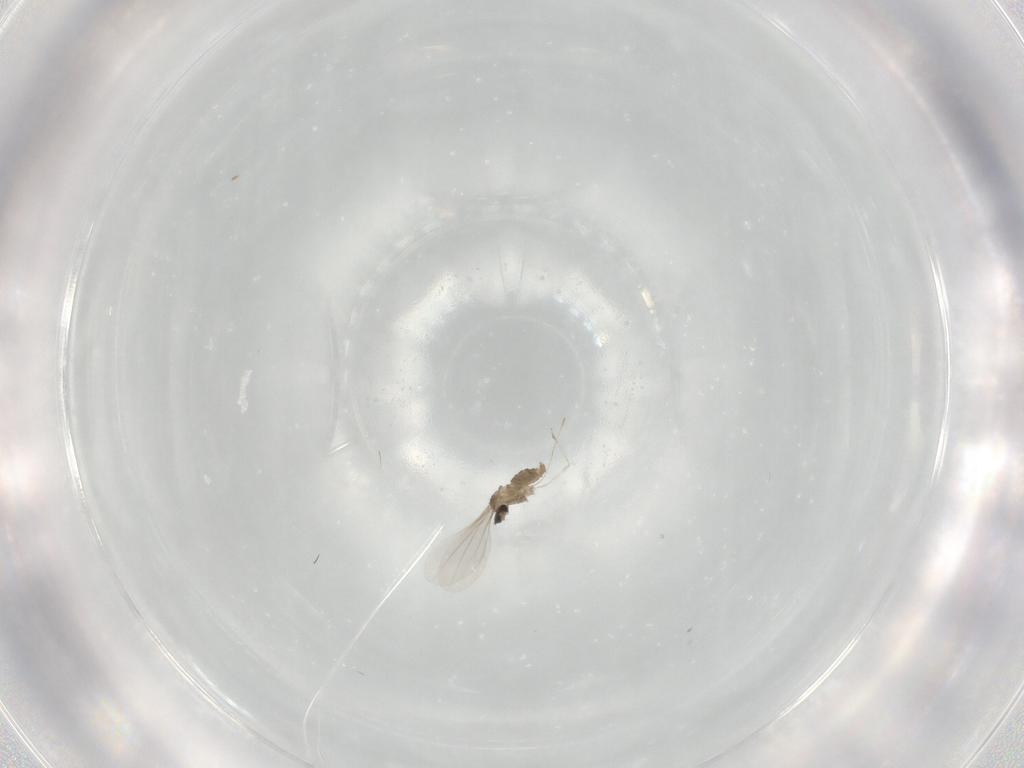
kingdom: Animalia
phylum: Arthropoda
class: Insecta
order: Diptera
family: Cecidomyiidae
